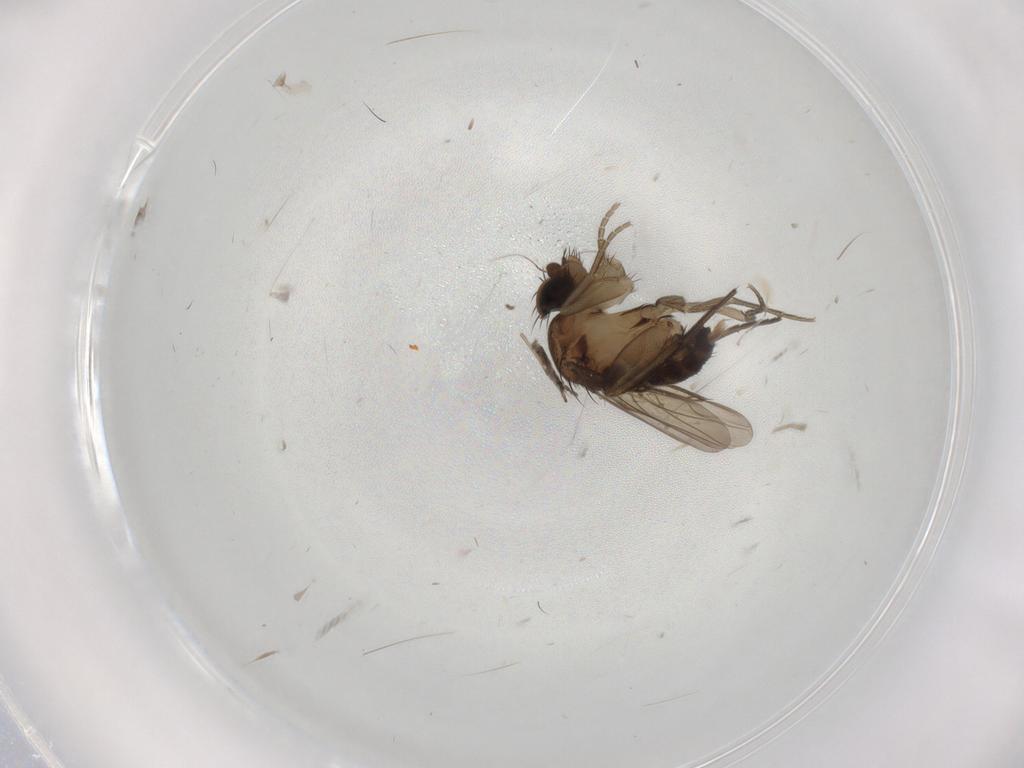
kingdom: Animalia
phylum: Arthropoda
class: Insecta
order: Diptera
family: Phoridae
